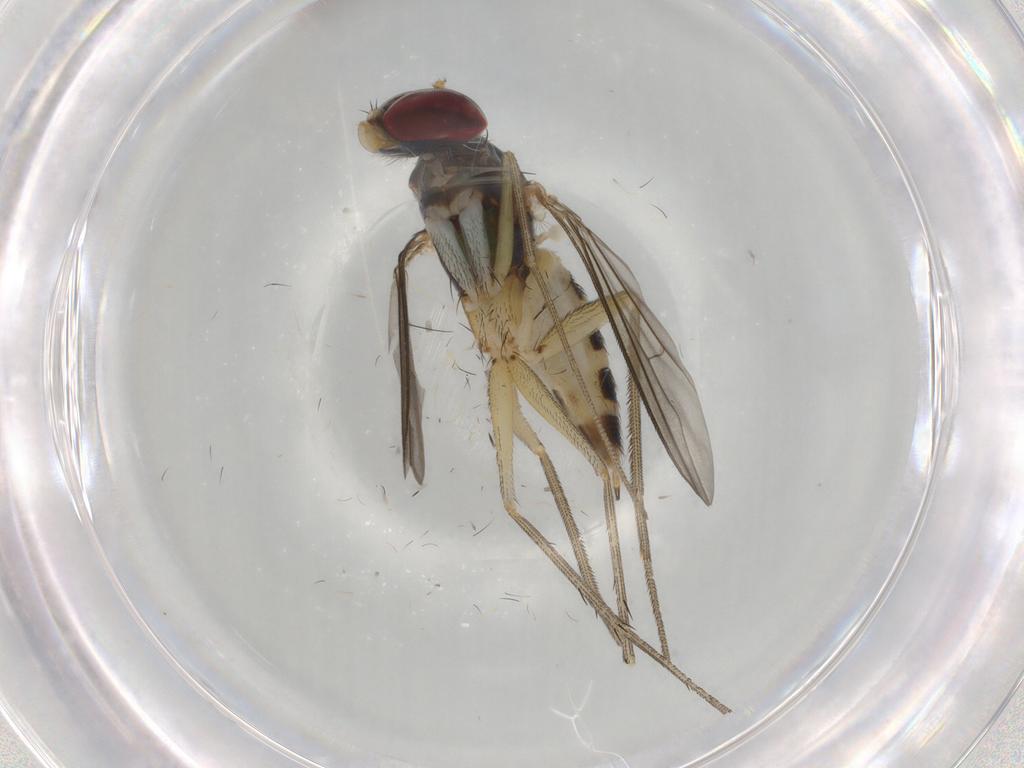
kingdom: Animalia
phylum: Arthropoda
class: Insecta
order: Diptera
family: Dolichopodidae
